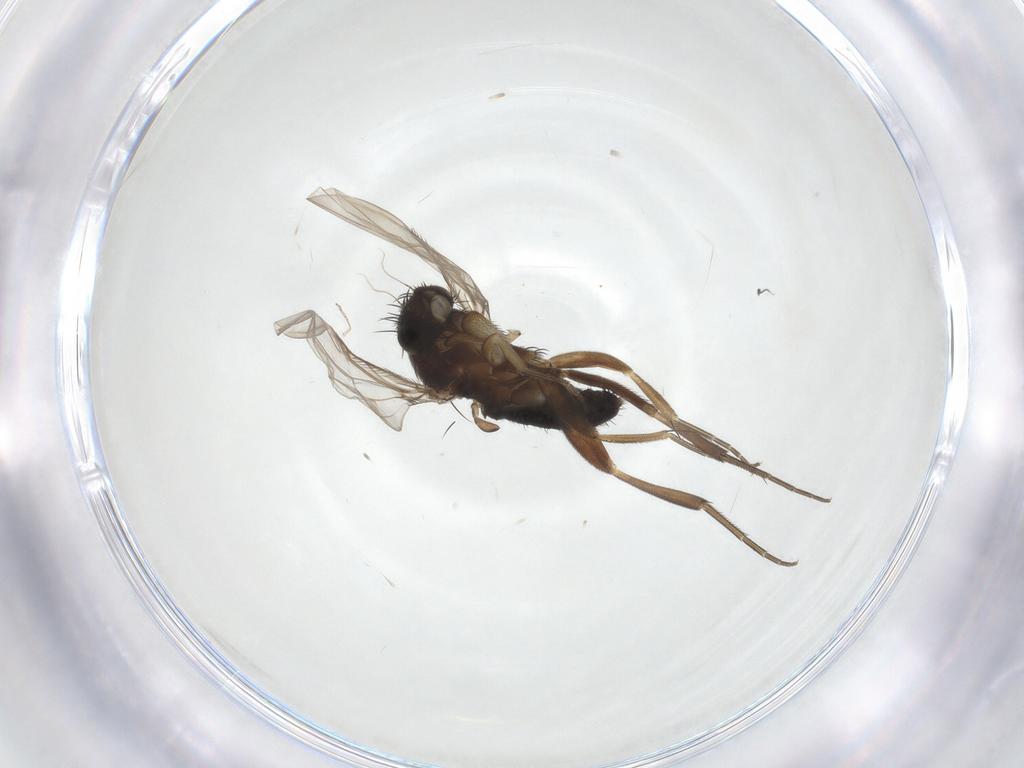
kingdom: Animalia
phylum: Arthropoda
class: Insecta
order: Diptera
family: Phoridae
